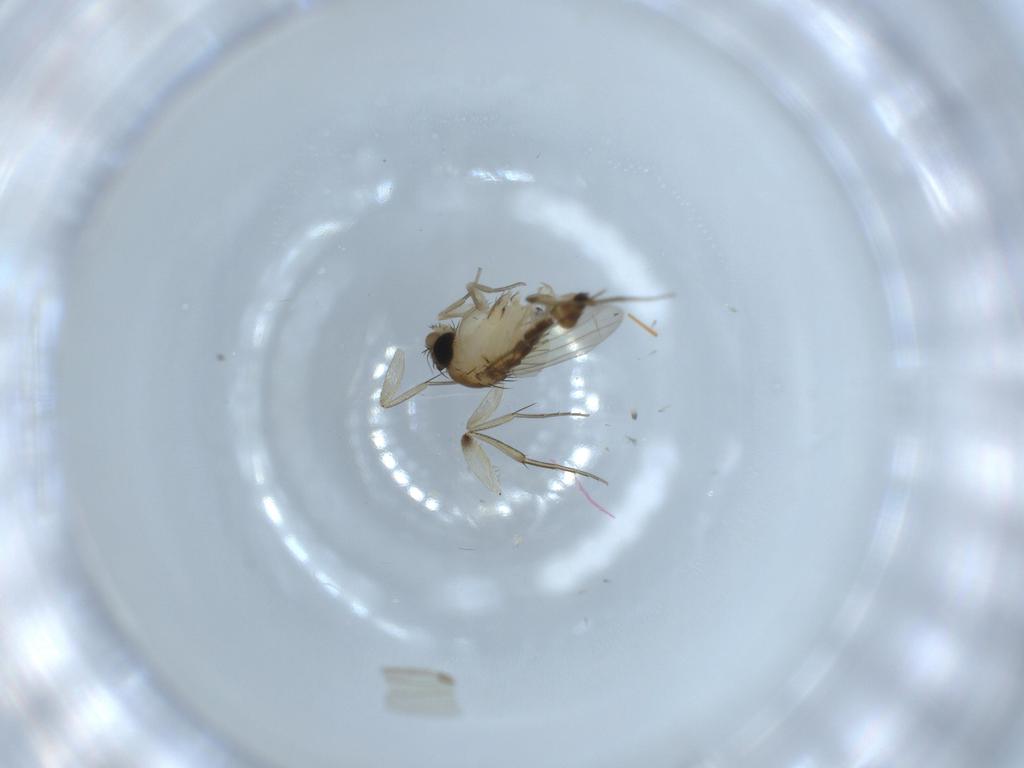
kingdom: Animalia
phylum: Arthropoda
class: Insecta
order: Diptera
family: Phoridae
